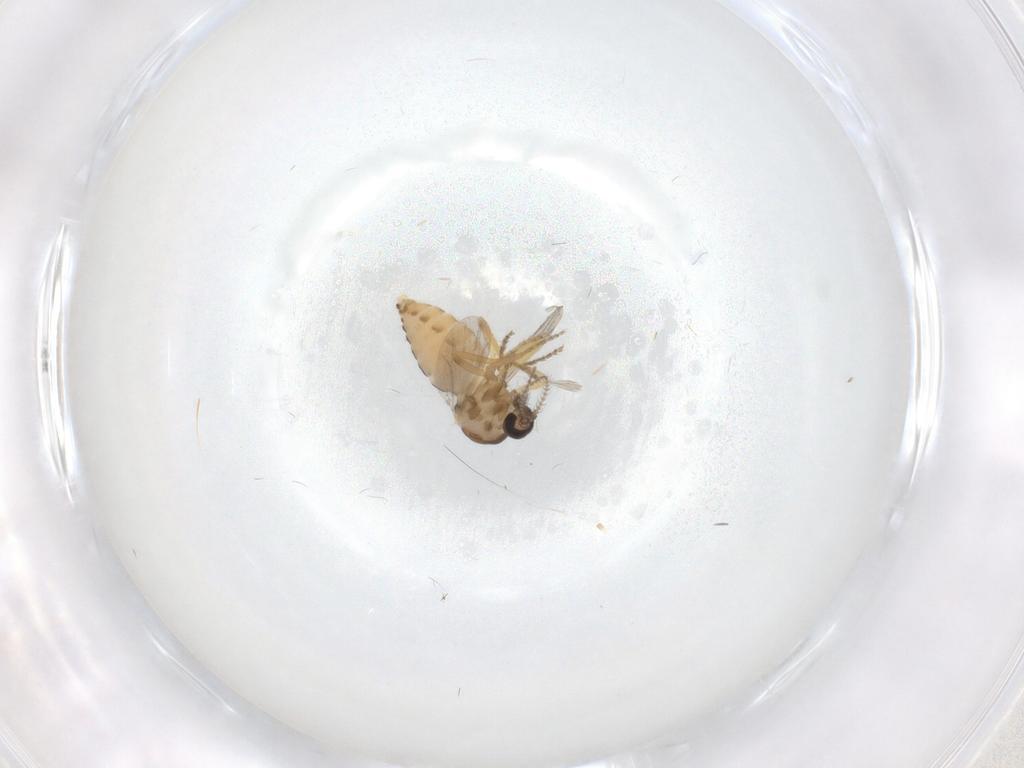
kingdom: Animalia
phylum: Arthropoda
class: Insecta
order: Diptera
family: Ceratopogonidae
